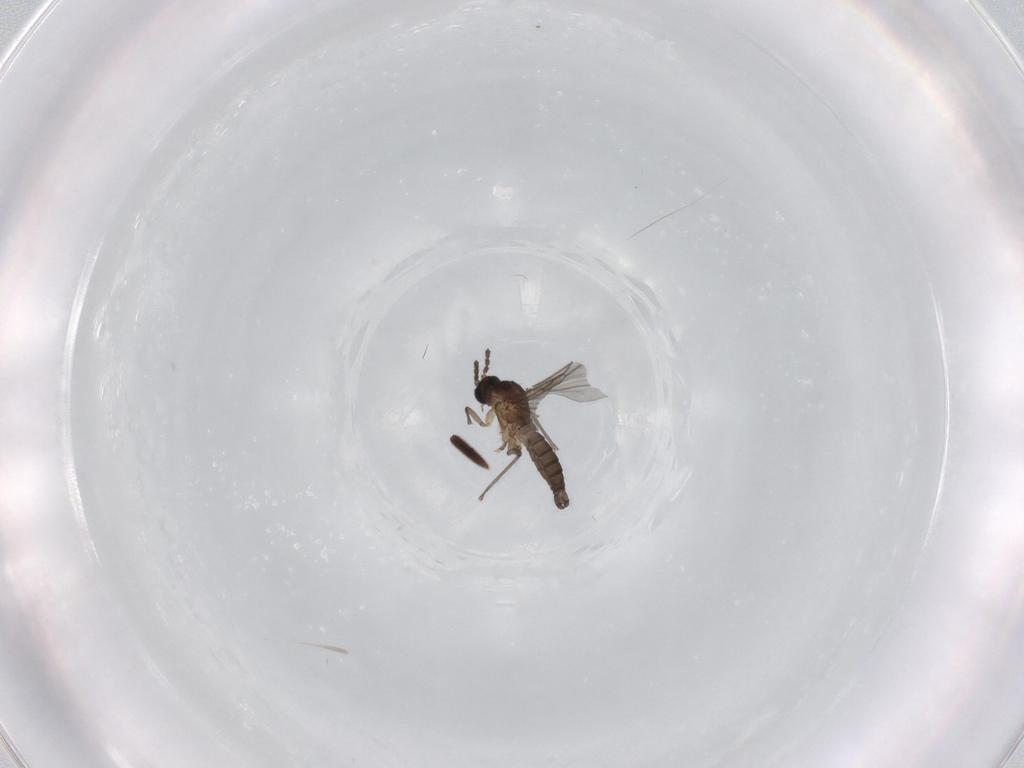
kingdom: Animalia
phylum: Arthropoda
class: Insecta
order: Diptera
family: Sciaridae
